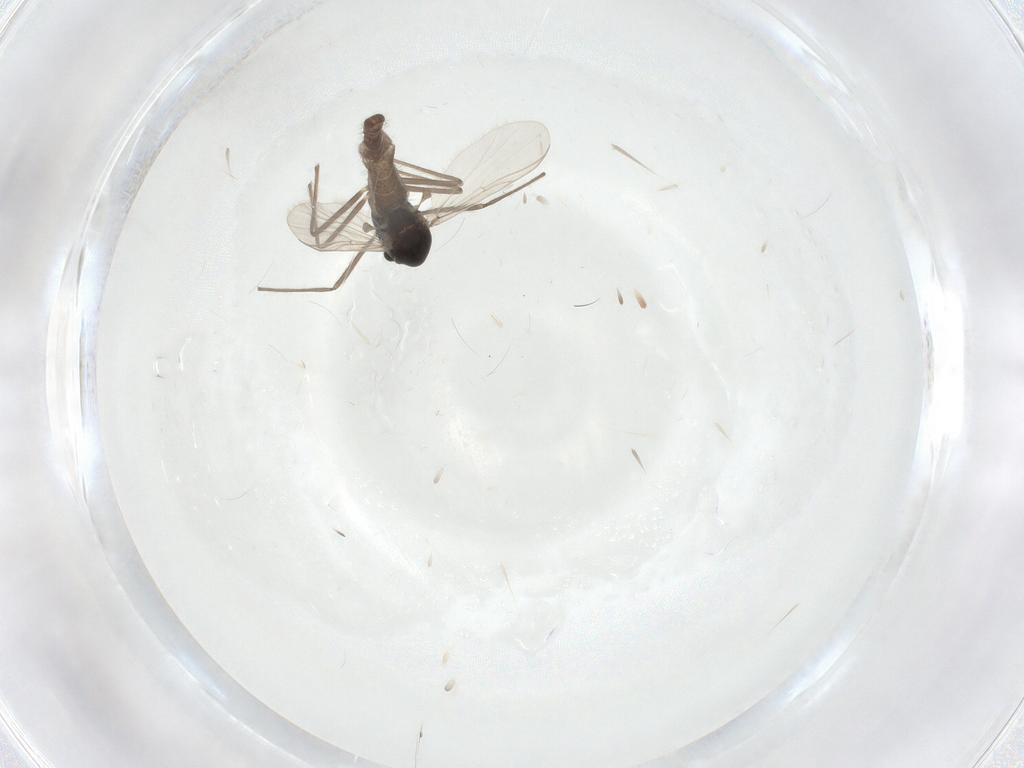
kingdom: Animalia
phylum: Arthropoda
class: Insecta
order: Diptera
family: Chironomidae
